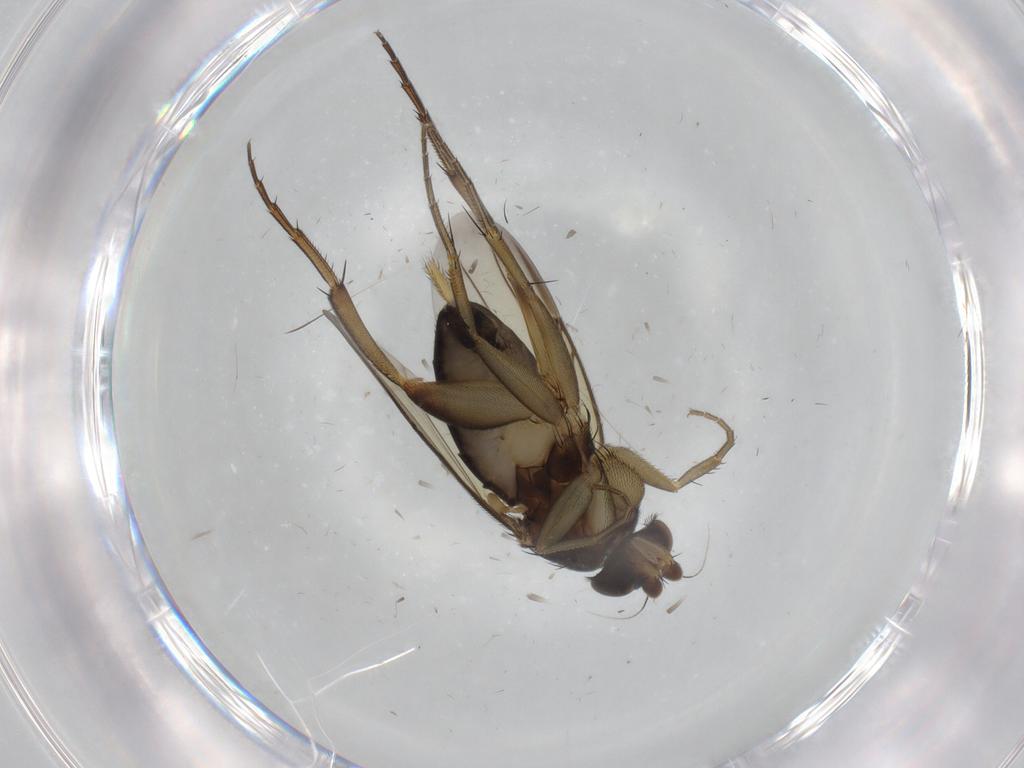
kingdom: Animalia
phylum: Arthropoda
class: Insecta
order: Diptera
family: Phoridae
